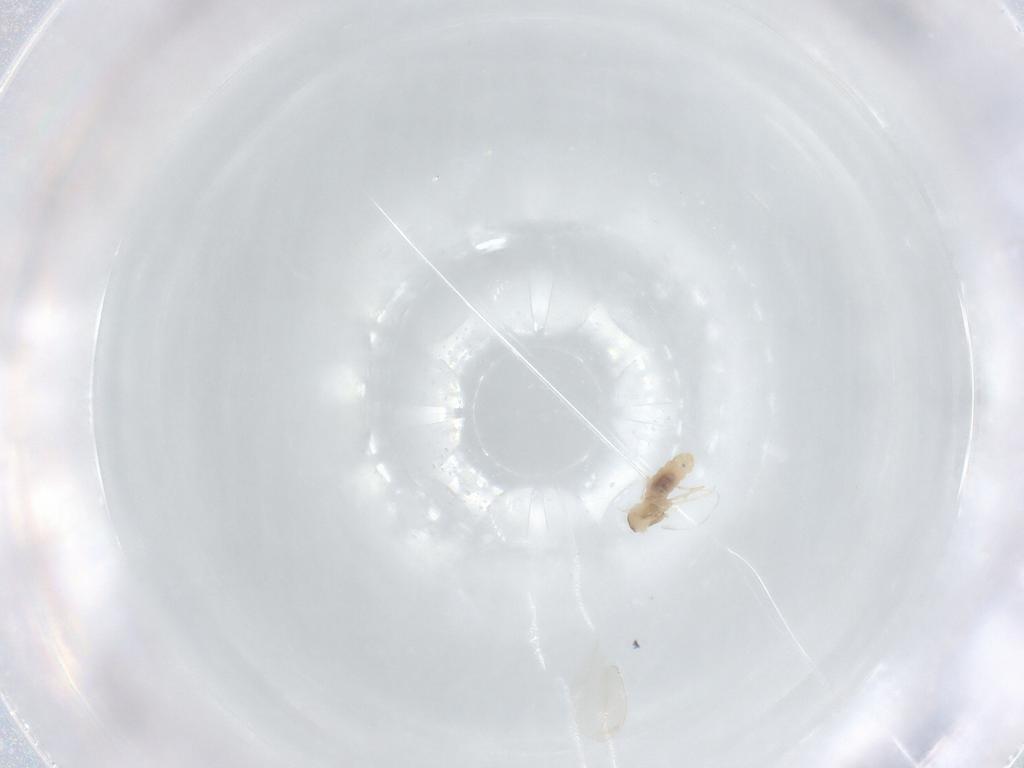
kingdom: Animalia
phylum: Arthropoda
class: Insecta
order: Diptera
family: Cecidomyiidae
